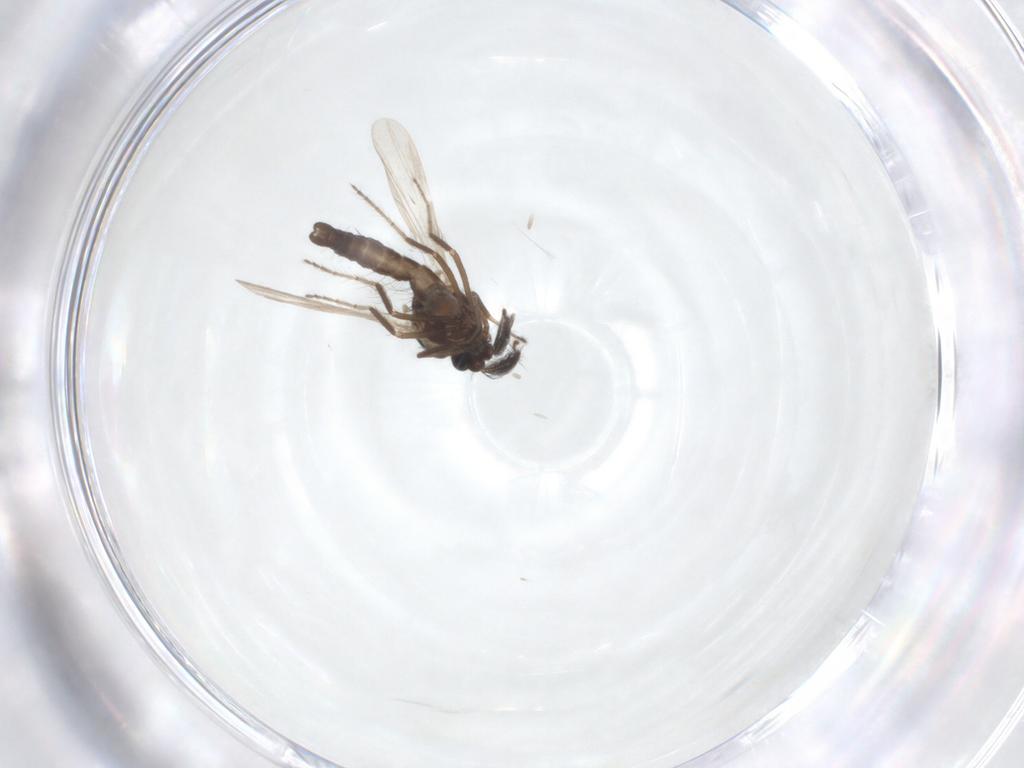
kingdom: Animalia
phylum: Arthropoda
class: Insecta
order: Diptera
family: Ceratopogonidae
